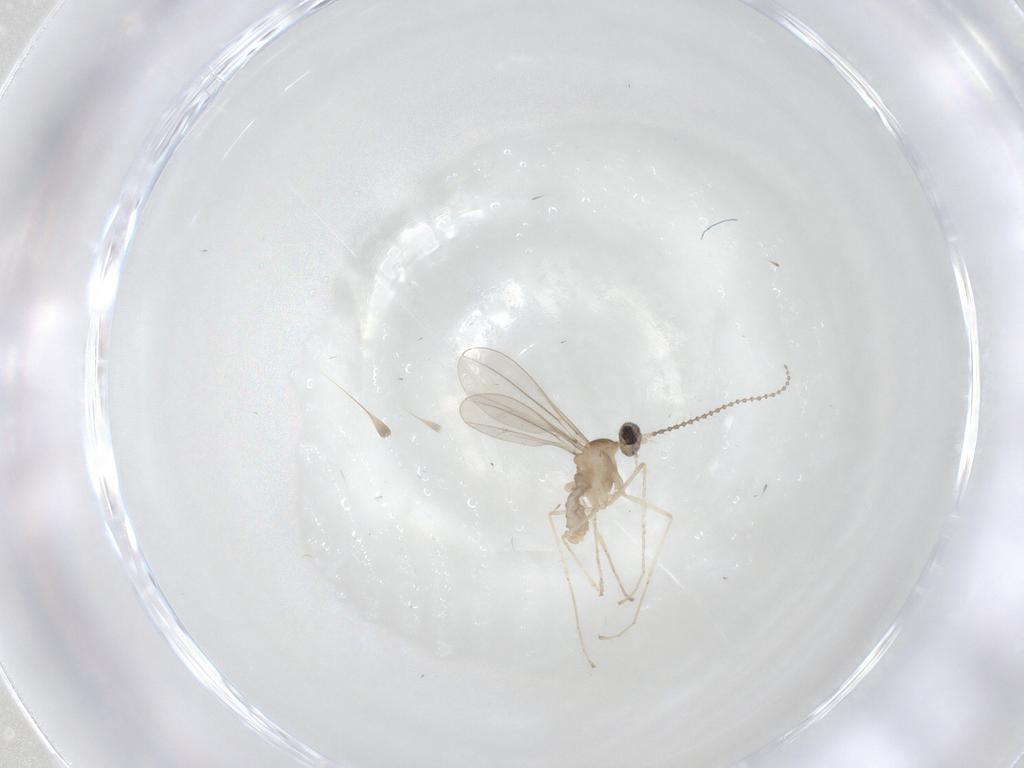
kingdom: Animalia
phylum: Arthropoda
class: Insecta
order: Diptera
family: Cecidomyiidae
